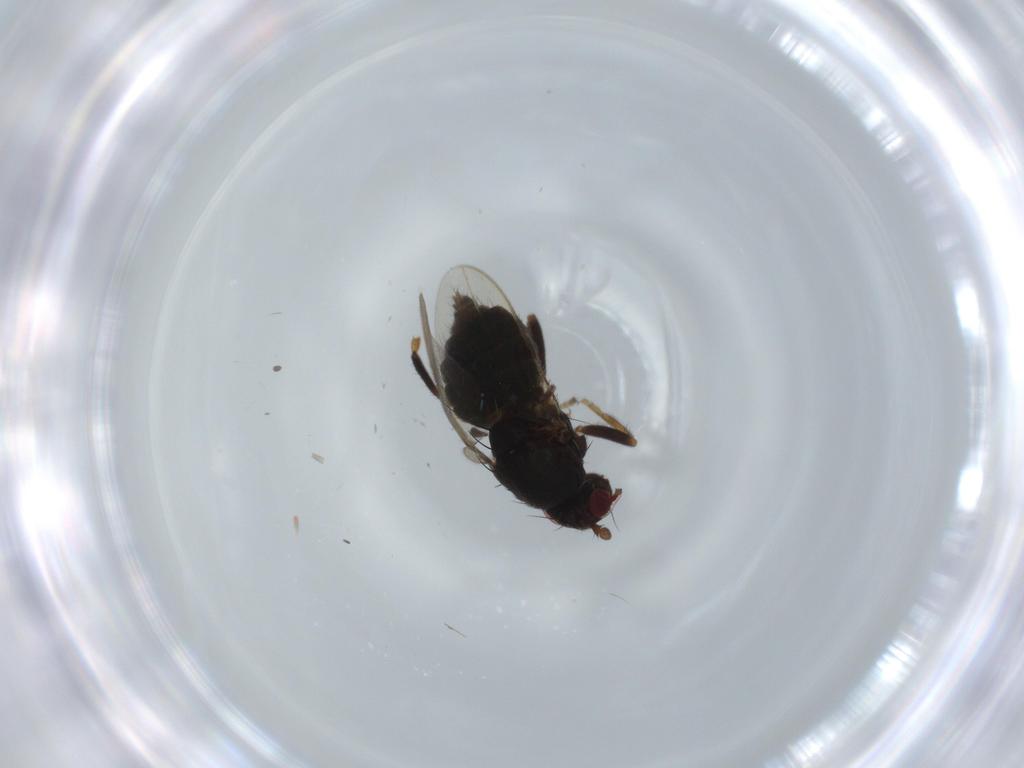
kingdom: Animalia
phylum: Arthropoda
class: Insecta
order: Diptera
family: Sphaeroceridae
